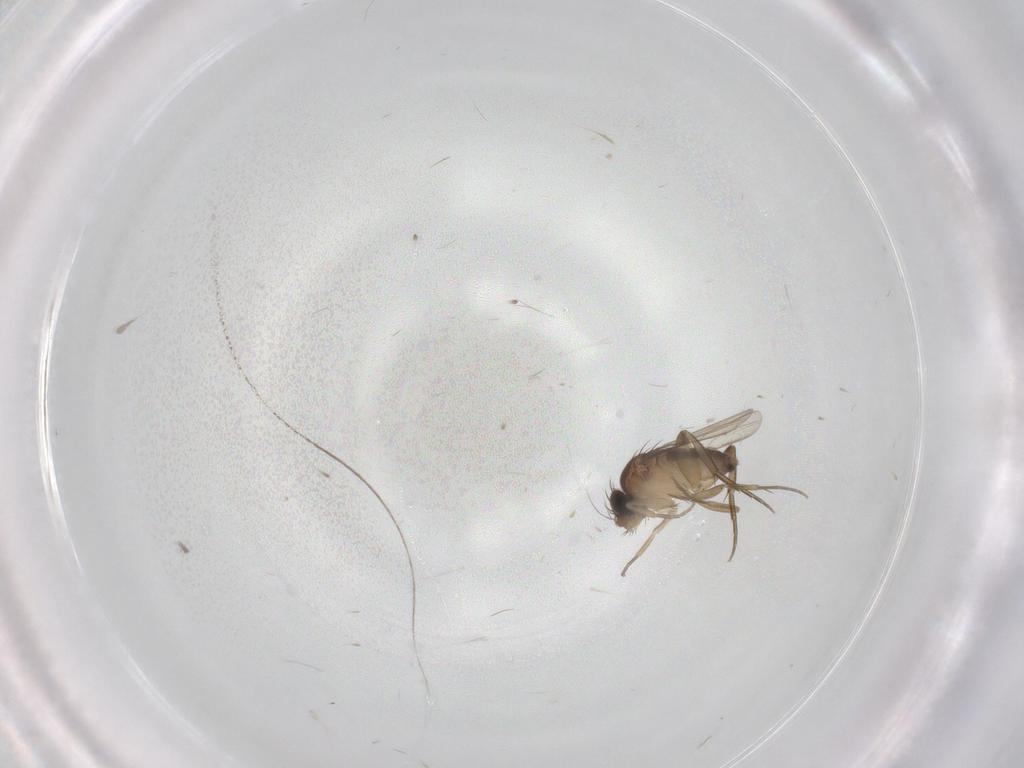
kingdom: Animalia
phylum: Arthropoda
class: Insecta
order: Diptera
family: Phoridae
